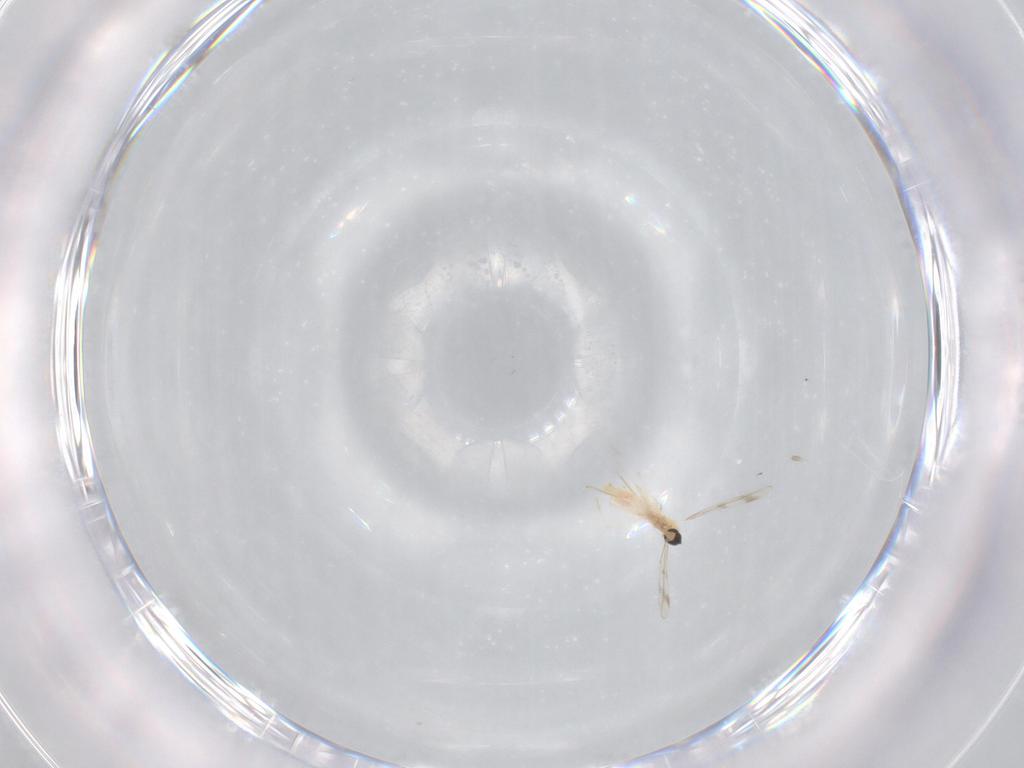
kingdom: Animalia
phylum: Arthropoda
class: Insecta
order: Diptera
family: Cecidomyiidae
